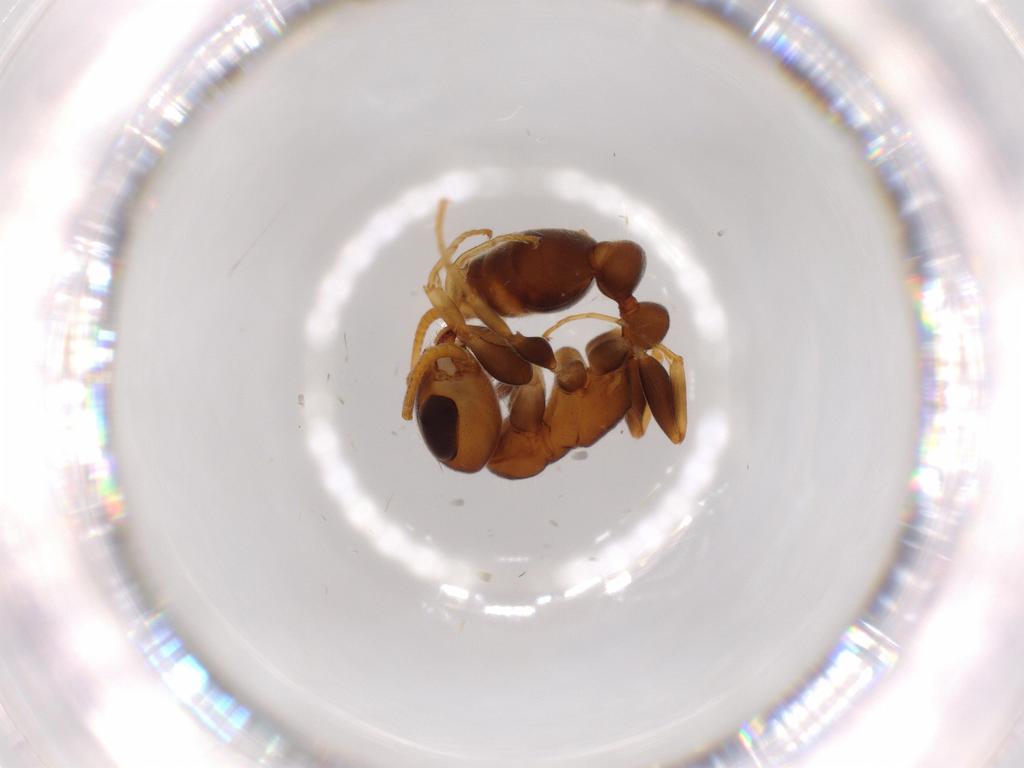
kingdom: Animalia
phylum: Arthropoda
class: Insecta
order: Hymenoptera
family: Formicidae
